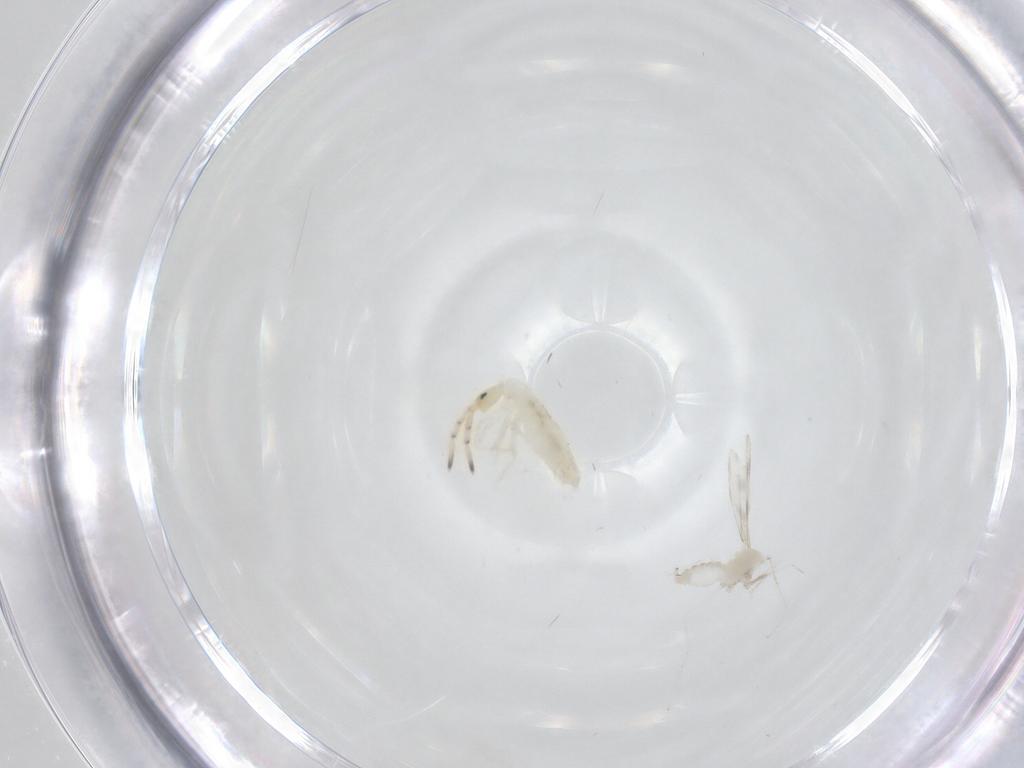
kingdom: Animalia
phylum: Arthropoda
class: Collembola
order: Entomobryomorpha
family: Entomobryidae
